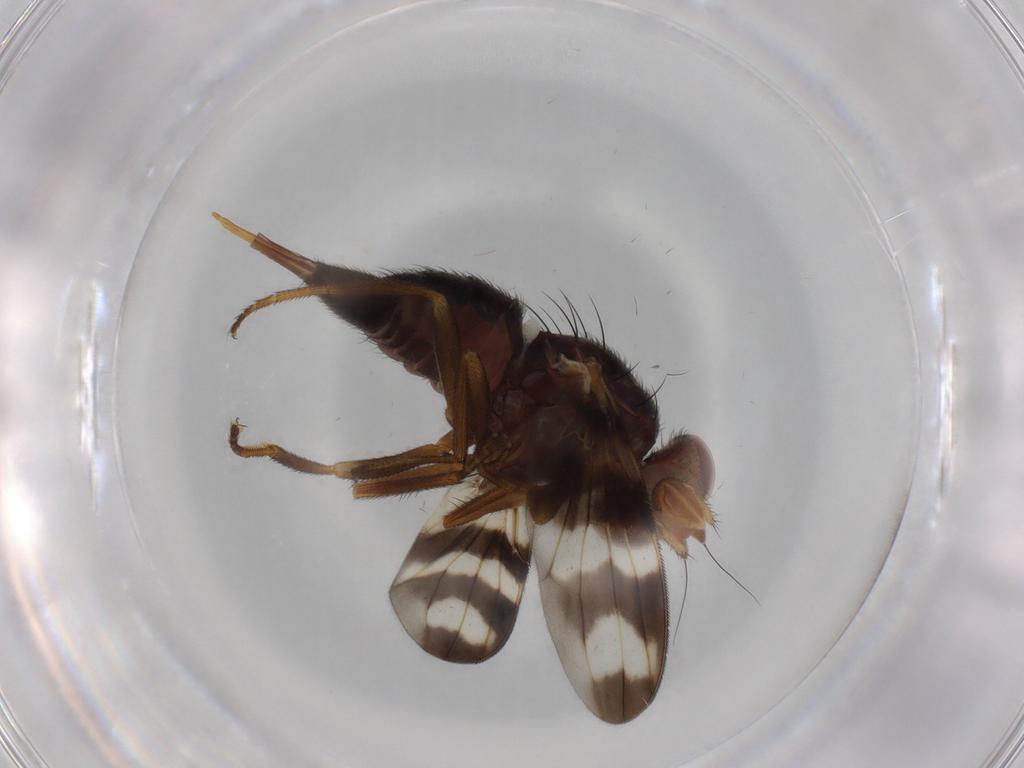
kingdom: Animalia
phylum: Arthropoda
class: Insecta
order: Diptera
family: Ulidiidae
